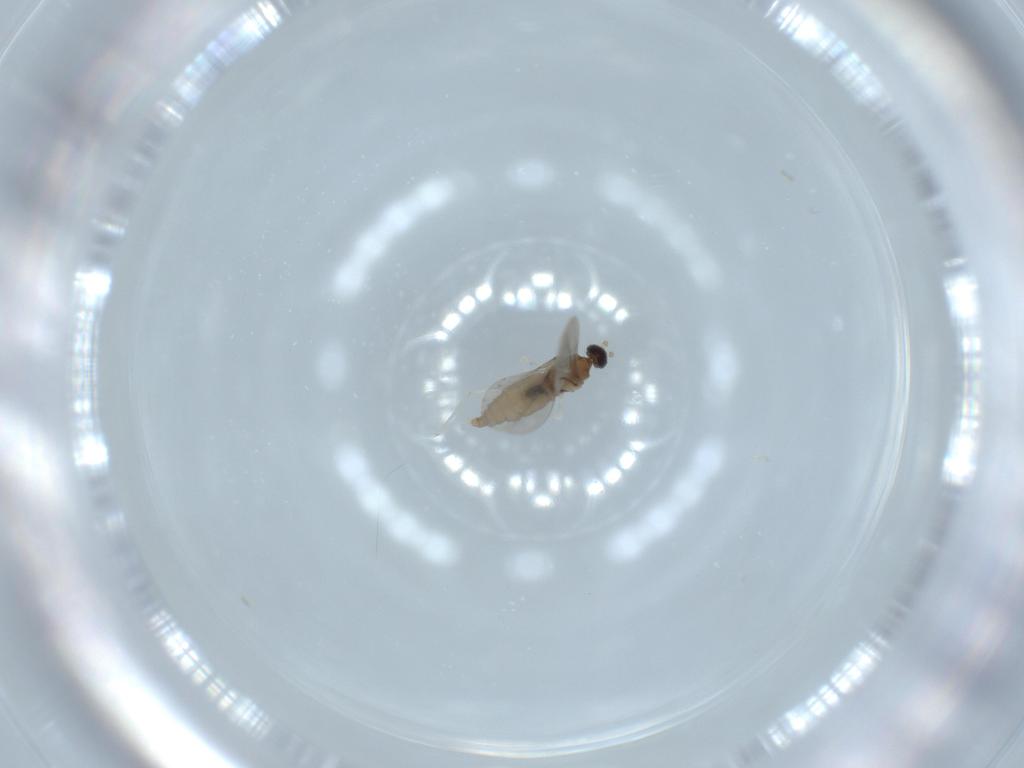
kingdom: Animalia
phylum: Arthropoda
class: Insecta
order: Diptera
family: Cecidomyiidae
